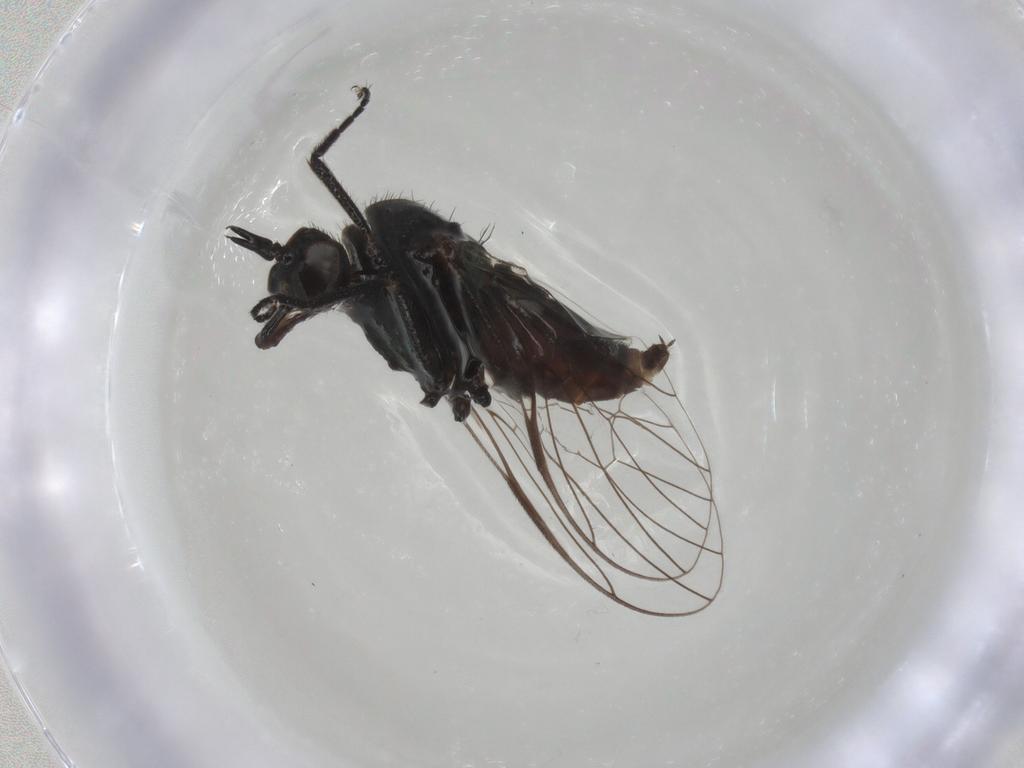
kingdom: Animalia
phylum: Arthropoda
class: Insecta
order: Diptera
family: Empididae
